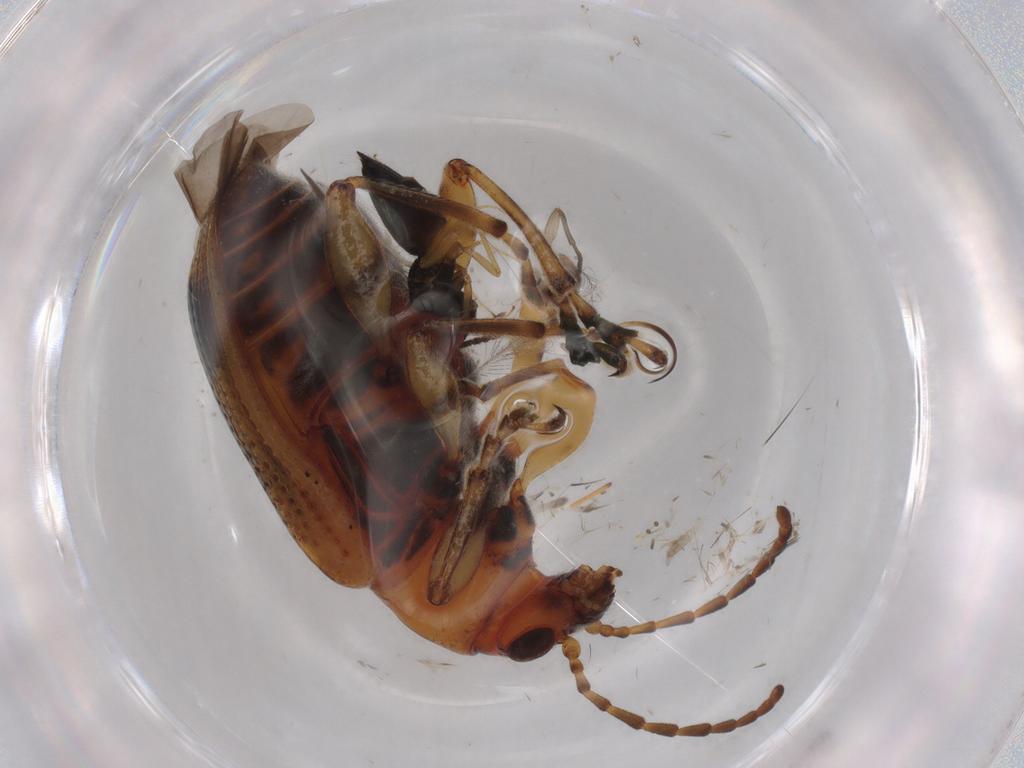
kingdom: Animalia
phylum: Arthropoda
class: Insecta
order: Coleoptera
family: Chrysomelidae
